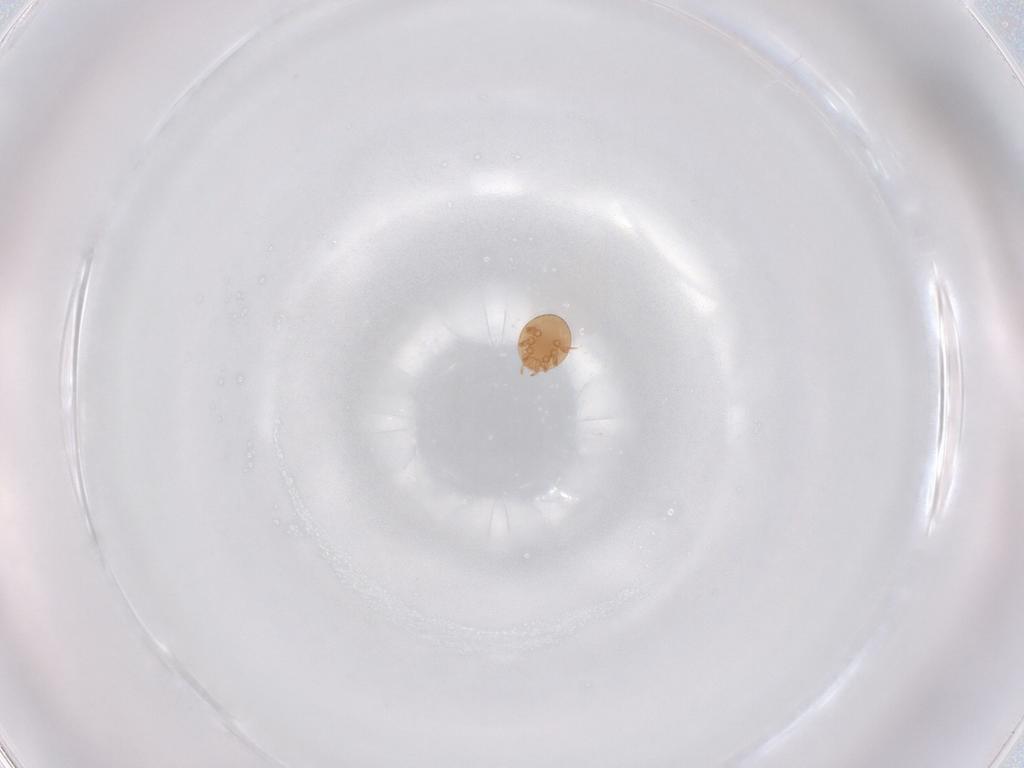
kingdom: Animalia
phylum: Arthropoda
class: Arachnida
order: Mesostigmata
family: Trematuridae
